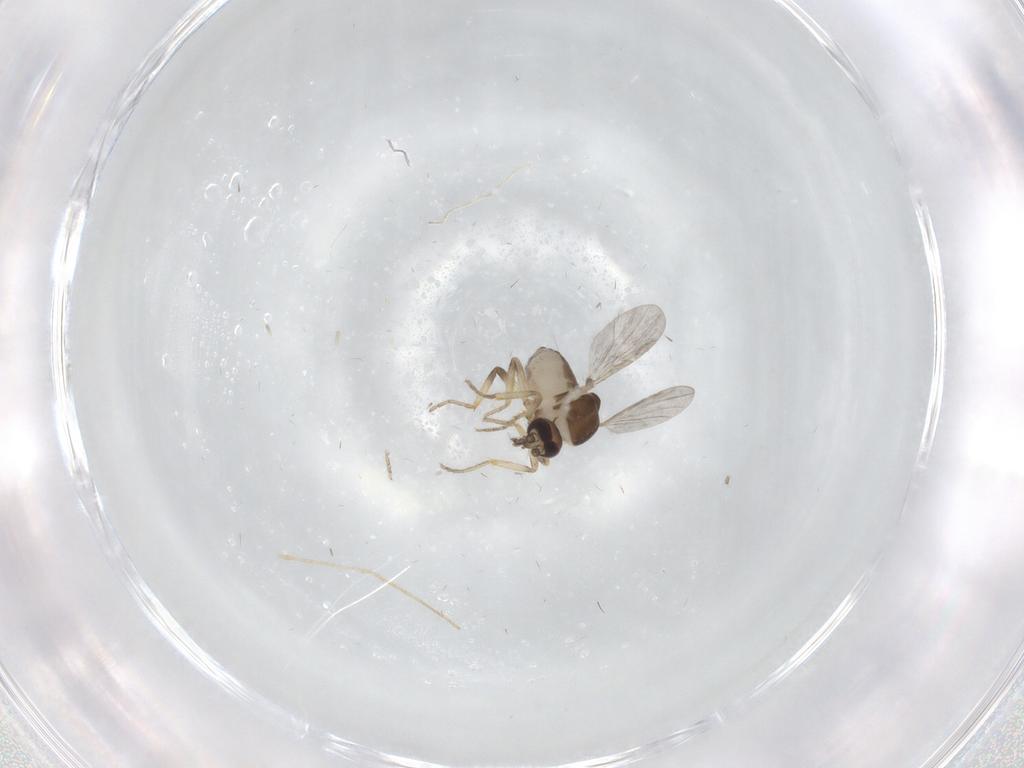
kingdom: Animalia
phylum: Arthropoda
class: Insecta
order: Diptera
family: Ceratopogonidae
